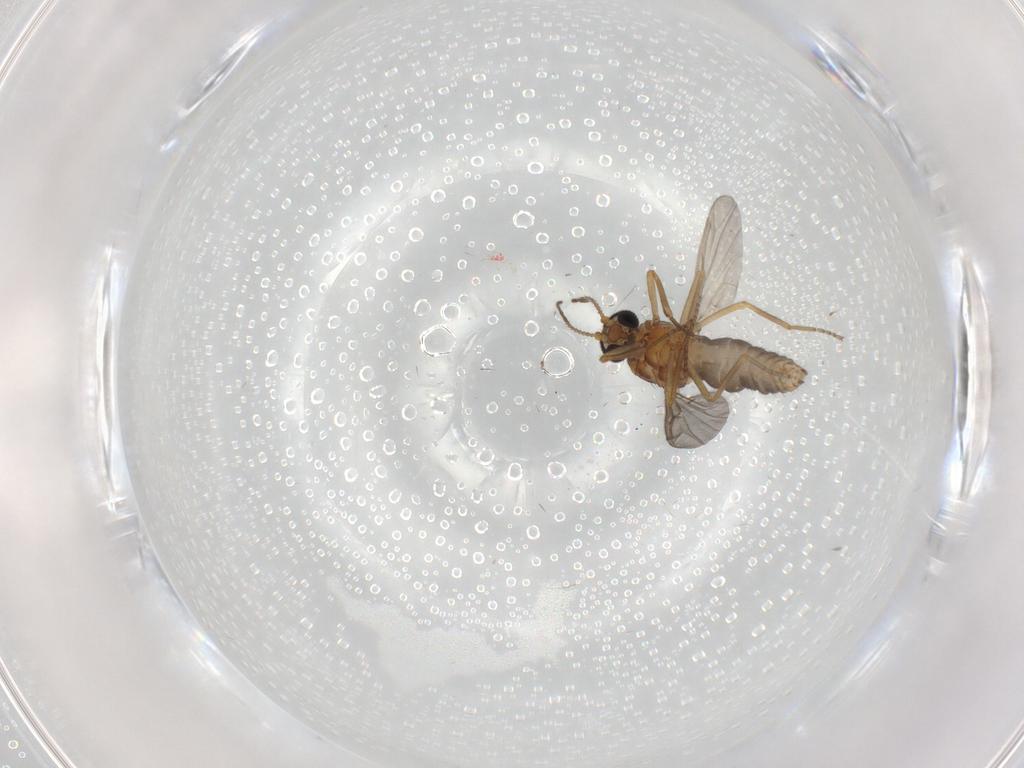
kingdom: Animalia
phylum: Arthropoda
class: Insecta
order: Diptera
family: Ceratopogonidae
